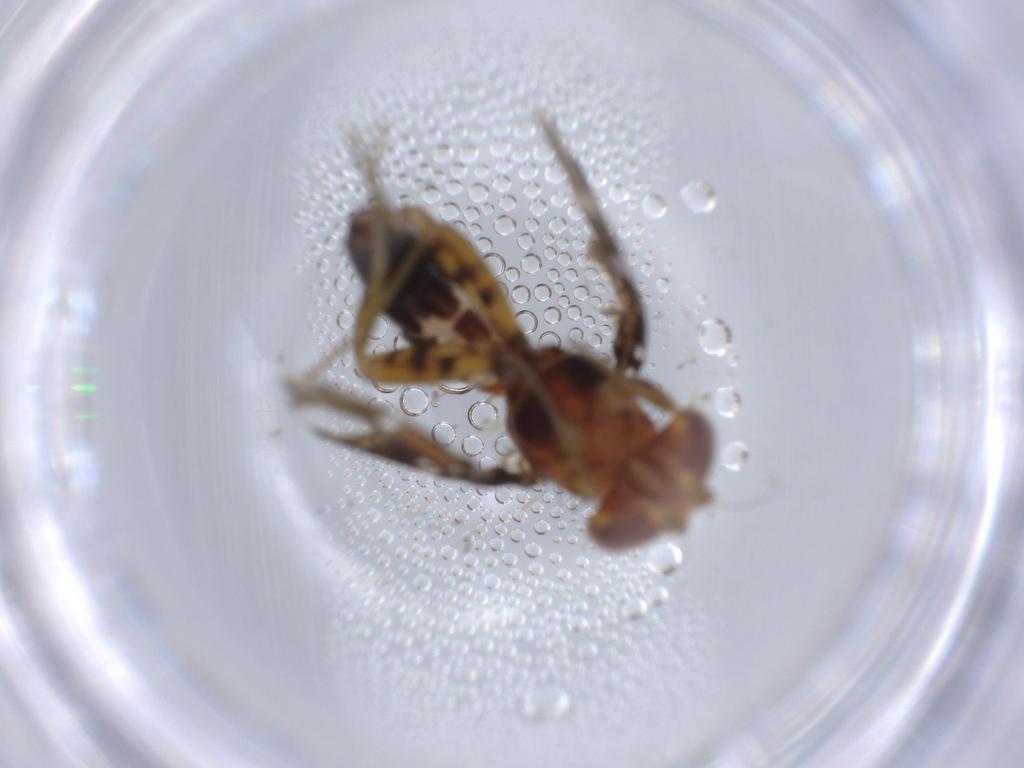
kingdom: Animalia
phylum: Arthropoda
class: Insecta
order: Diptera
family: Ulidiidae
